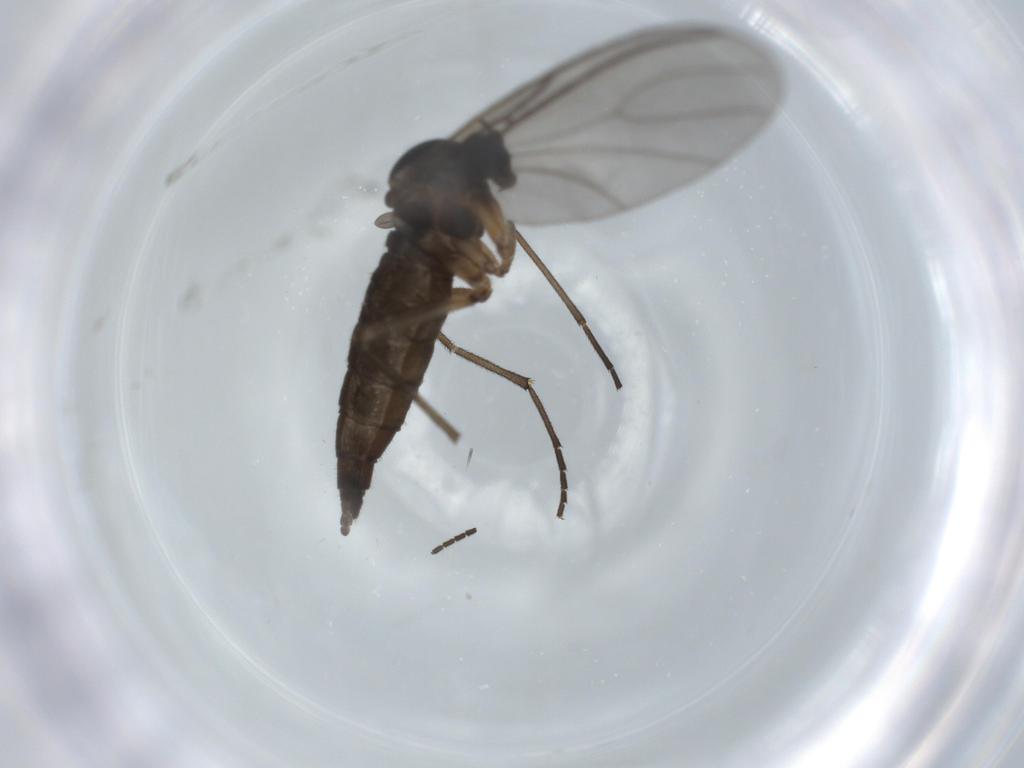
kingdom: Animalia
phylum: Arthropoda
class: Insecta
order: Diptera
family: Sciaridae
